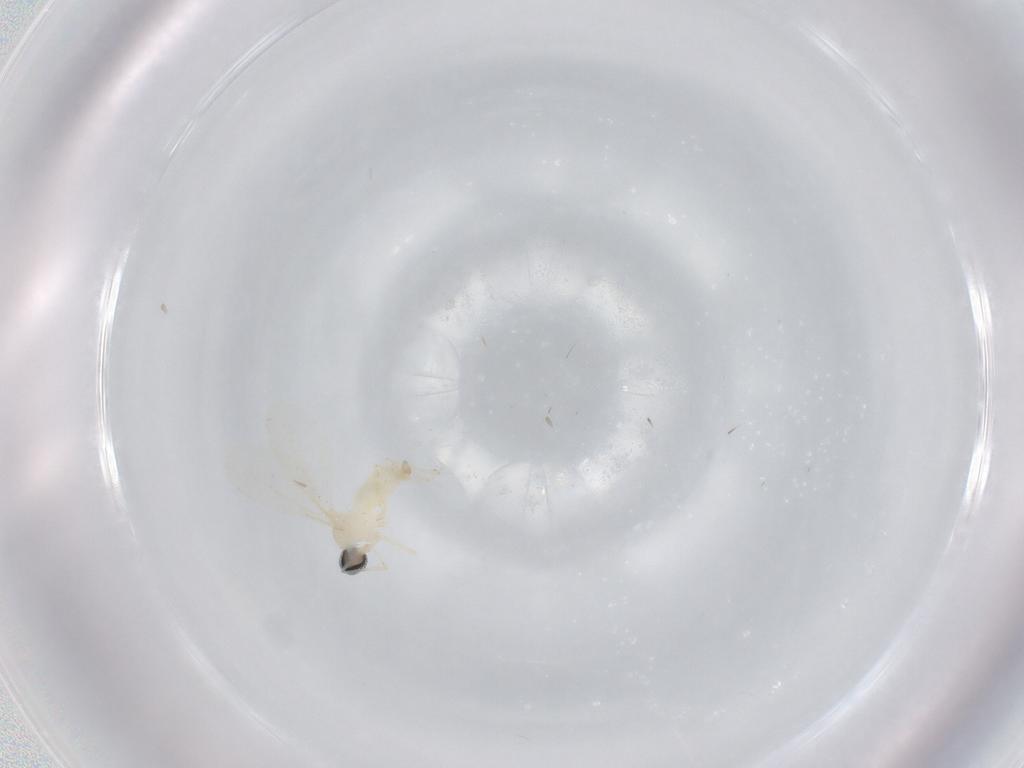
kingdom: Animalia
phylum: Arthropoda
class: Insecta
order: Diptera
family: Cecidomyiidae
